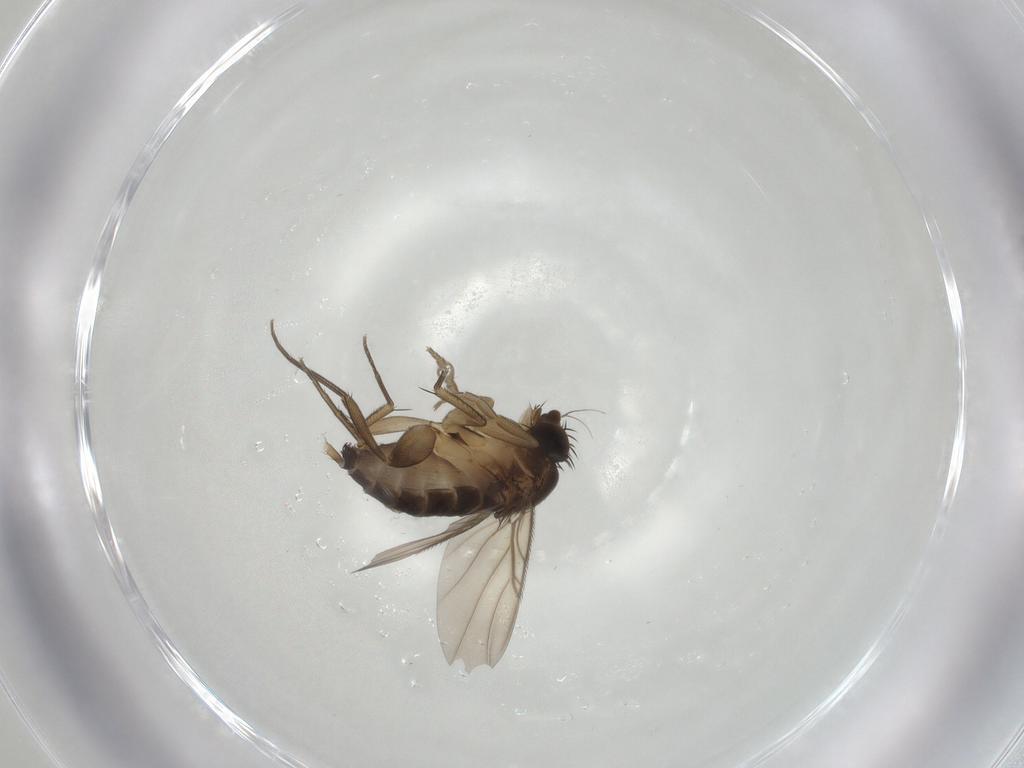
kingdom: Animalia
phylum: Arthropoda
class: Insecta
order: Diptera
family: Phoridae
